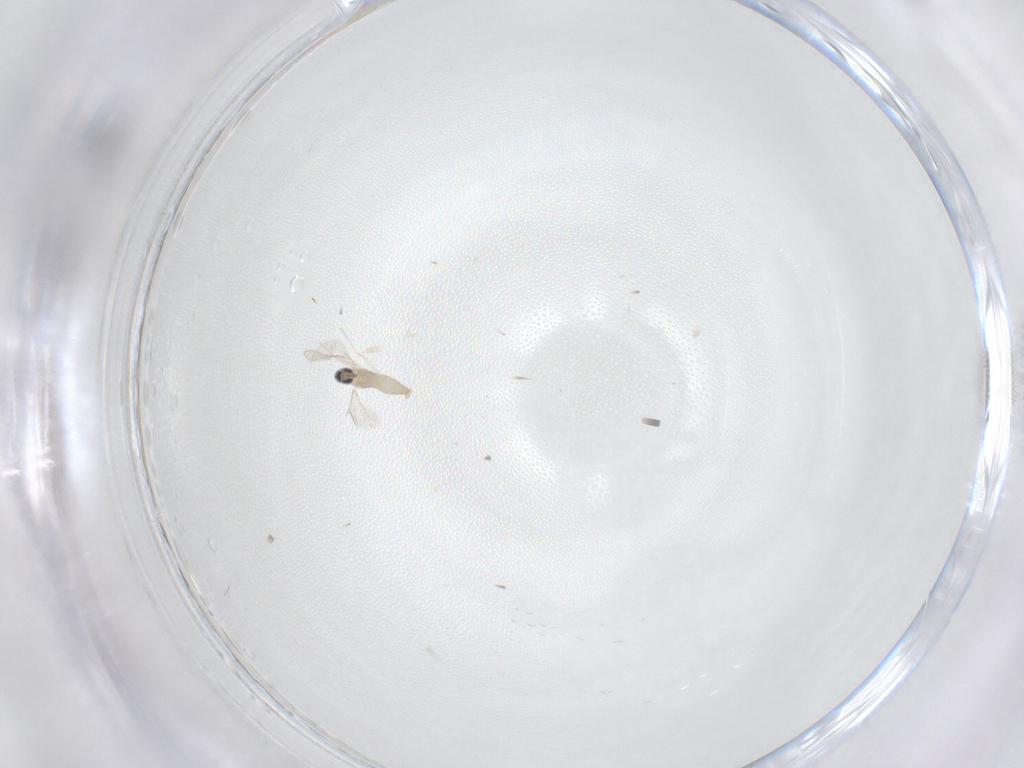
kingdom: Animalia
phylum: Arthropoda
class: Insecta
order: Diptera
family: Cecidomyiidae
